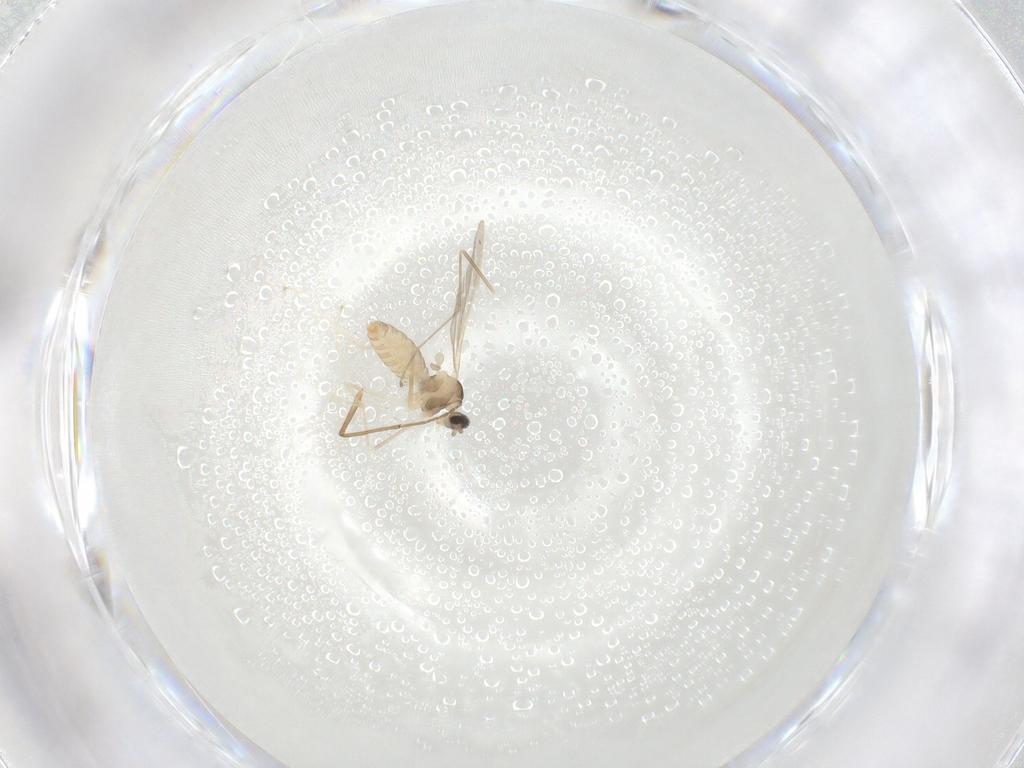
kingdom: Animalia
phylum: Arthropoda
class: Insecta
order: Diptera
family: Cecidomyiidae
